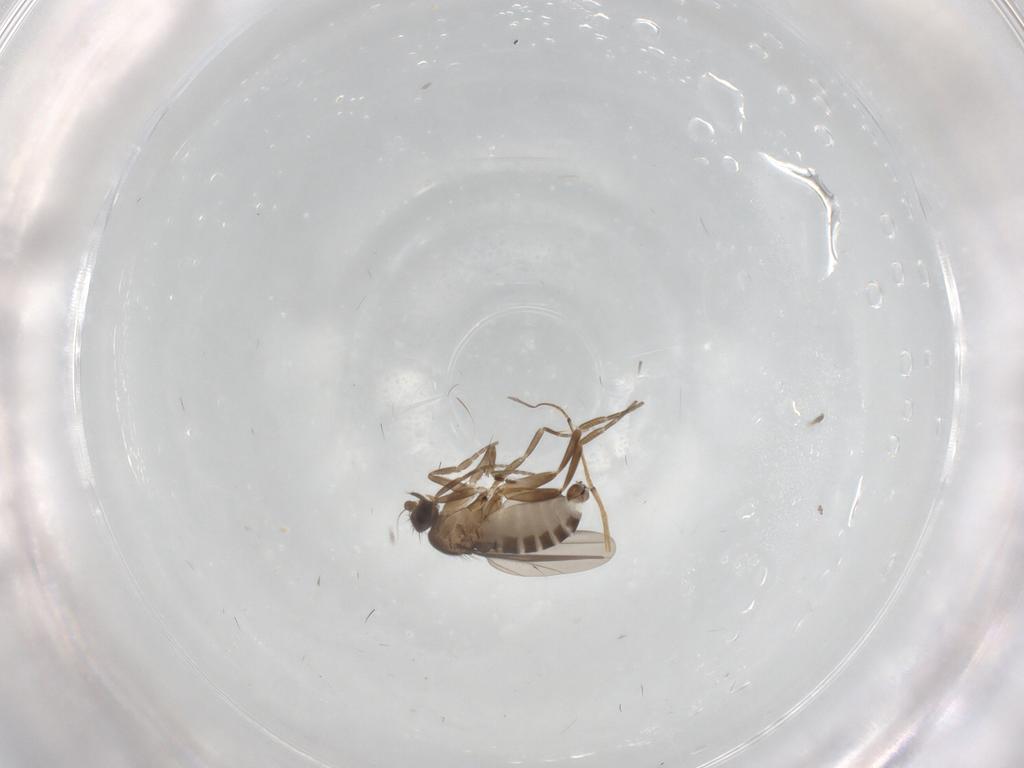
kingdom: Animalia
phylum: Arthropoda
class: Insecta
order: Diptera
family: Sciaridae
